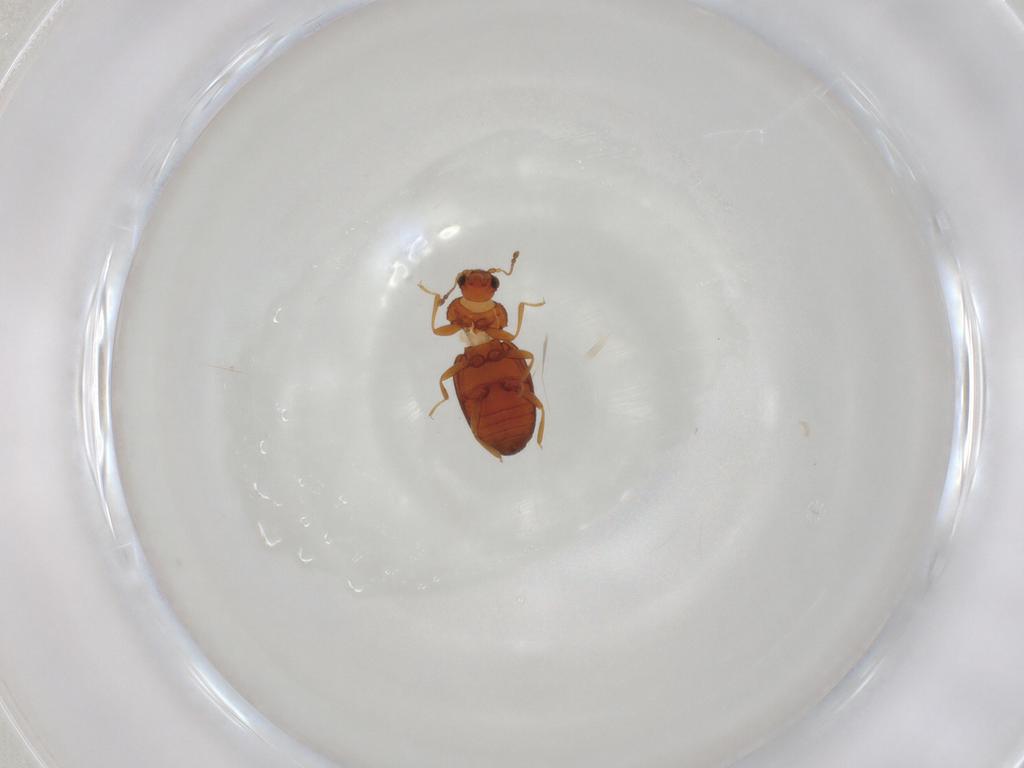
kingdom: Animalia
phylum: Arthropoda
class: Insecta
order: Coleoptera
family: Latridiidae
